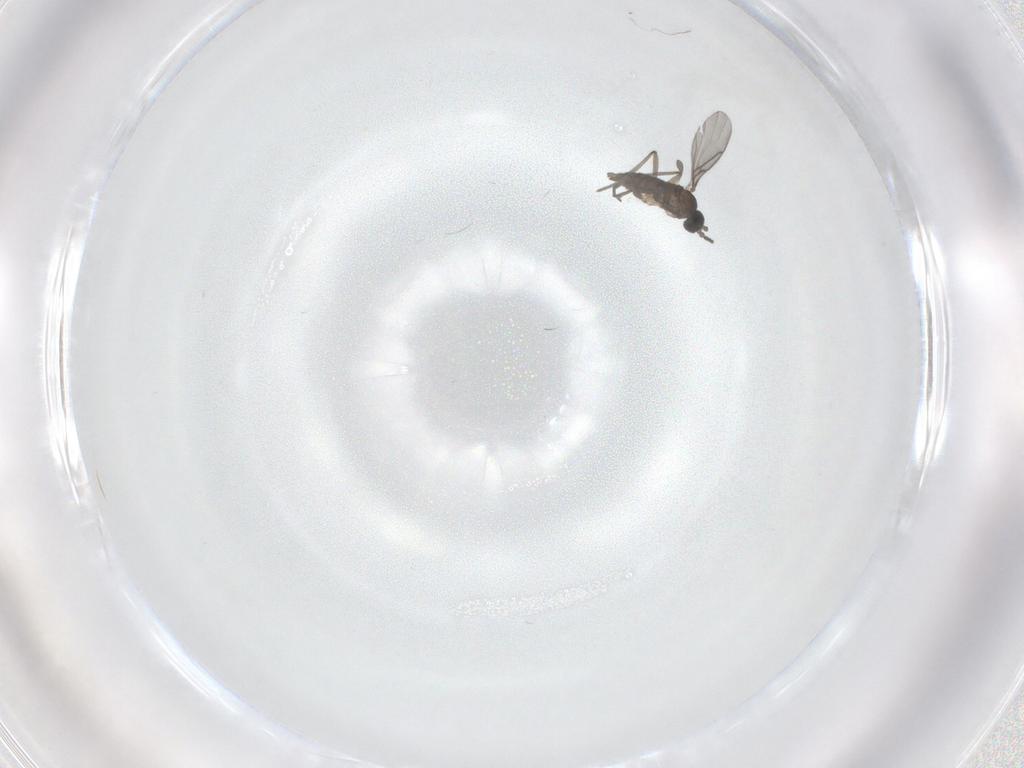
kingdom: Animalia
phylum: Arthropoda
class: Insecta
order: Diptera
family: Sciaridae
